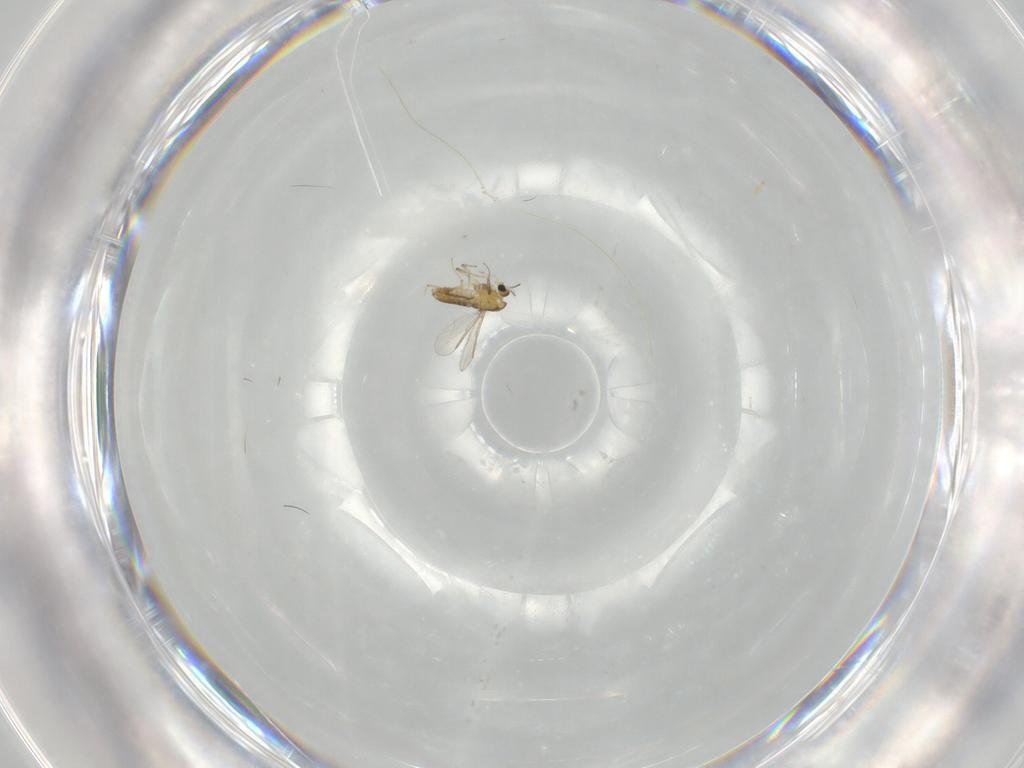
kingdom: Animalia
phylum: Arthropoda
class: Insecta
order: Diptera
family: Chironomidae
